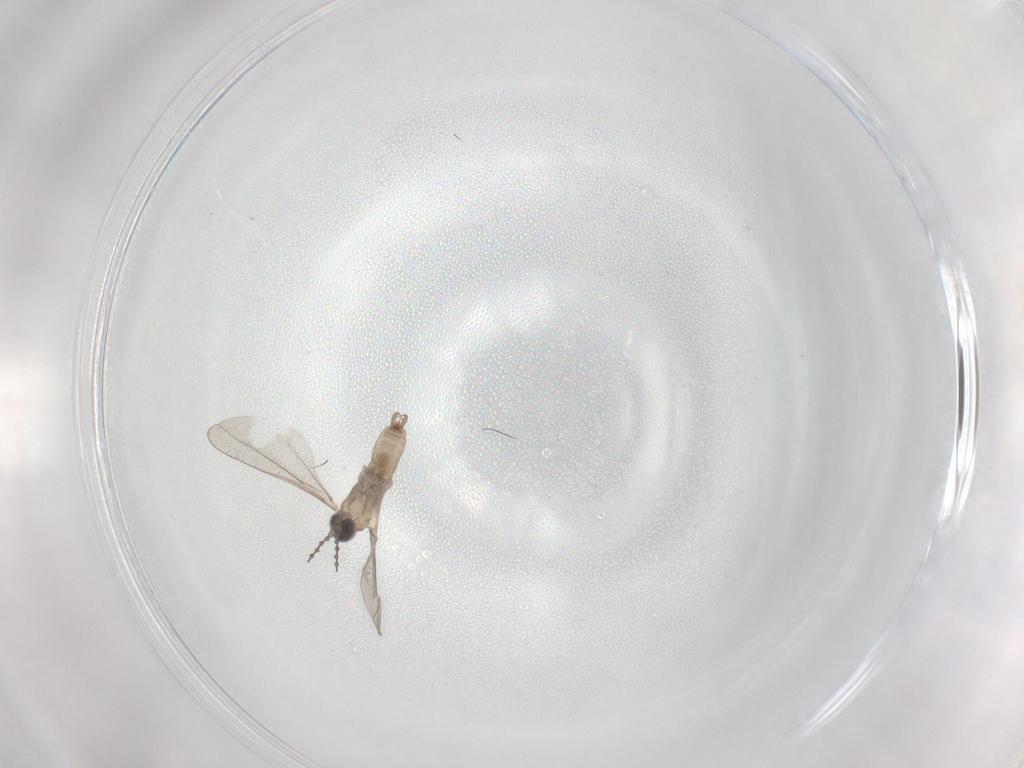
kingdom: Animalia
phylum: Arthropoda
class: Insecta
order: Diptera
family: Cecidomyiidae
